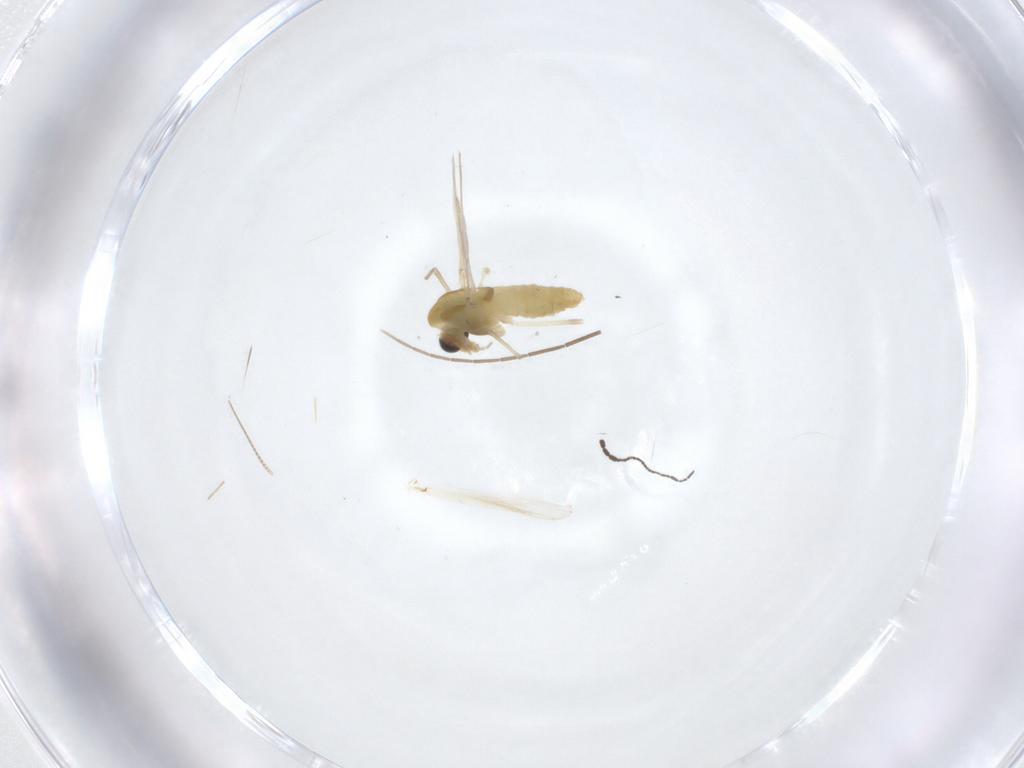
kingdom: Animalia
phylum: Arthropoda
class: Insecta
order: Diptera
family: Chironomidae
